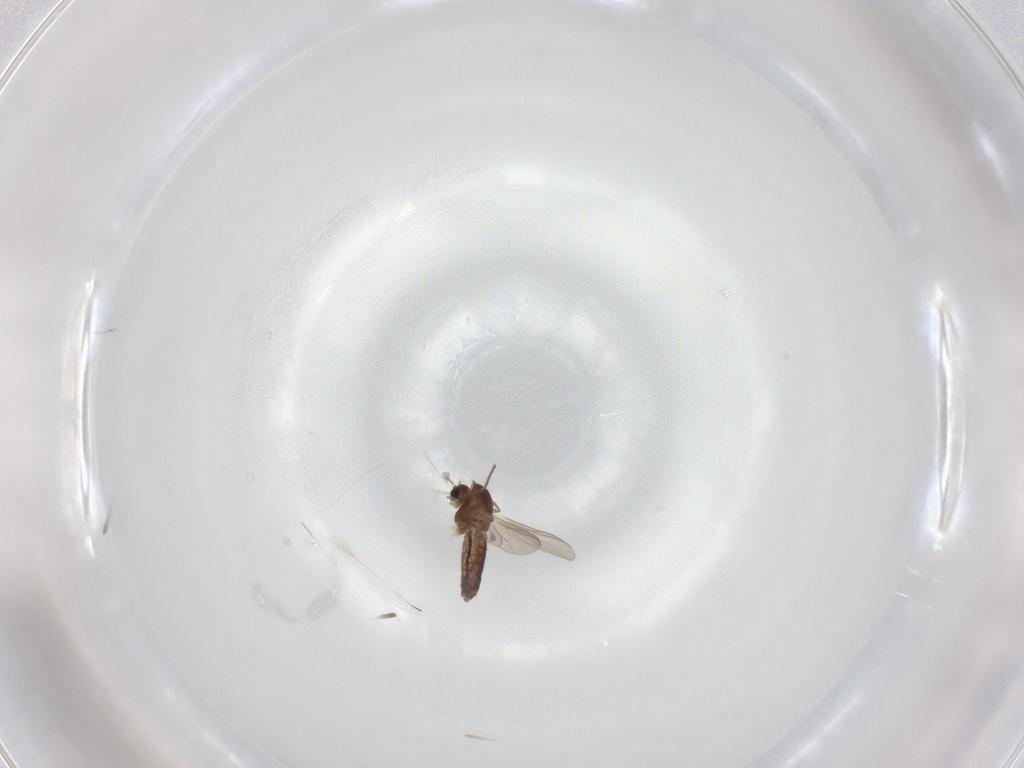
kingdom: Animalia
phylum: Arthropoda
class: Insecta
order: Diptera
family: Chironomidae
